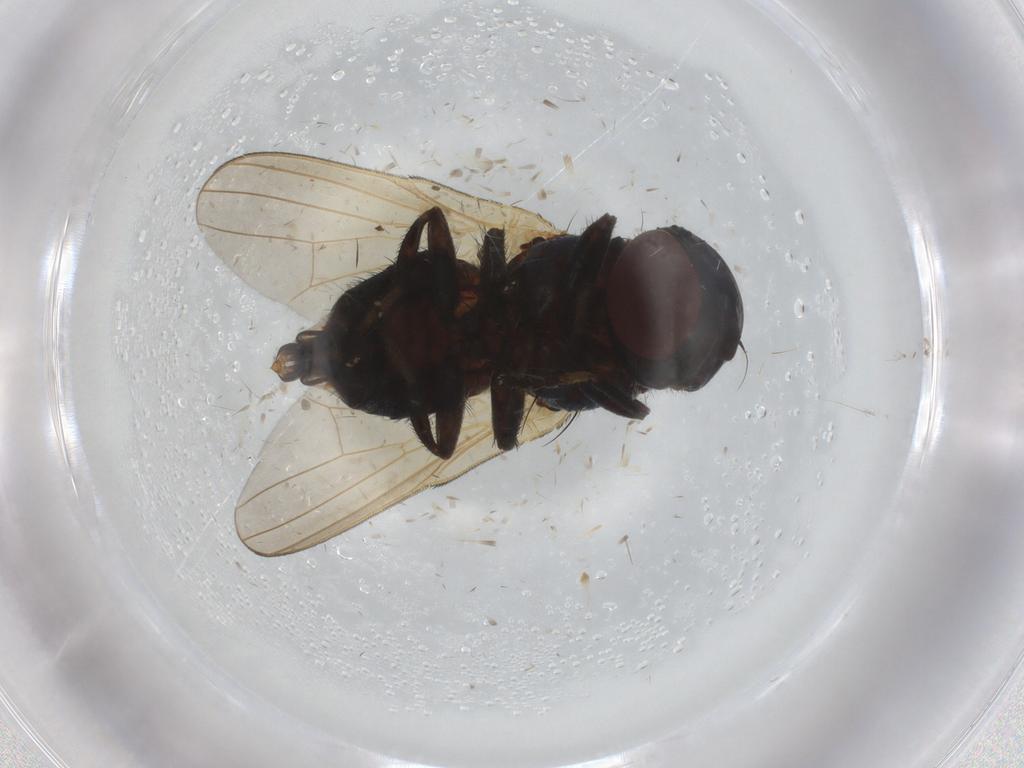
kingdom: Animalia
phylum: Arthropoda
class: Insecta
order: Diptera
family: Lonchaeidae
